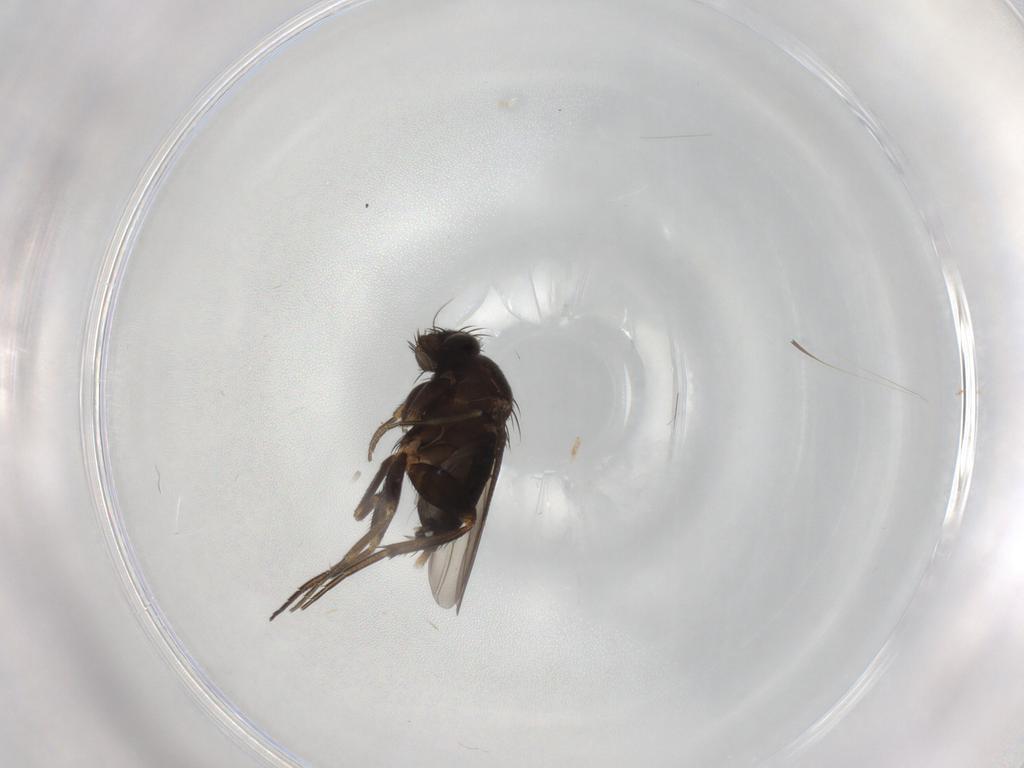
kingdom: Animalia
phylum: Arthropoda
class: Insecta
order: Diptera
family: Phoridae
